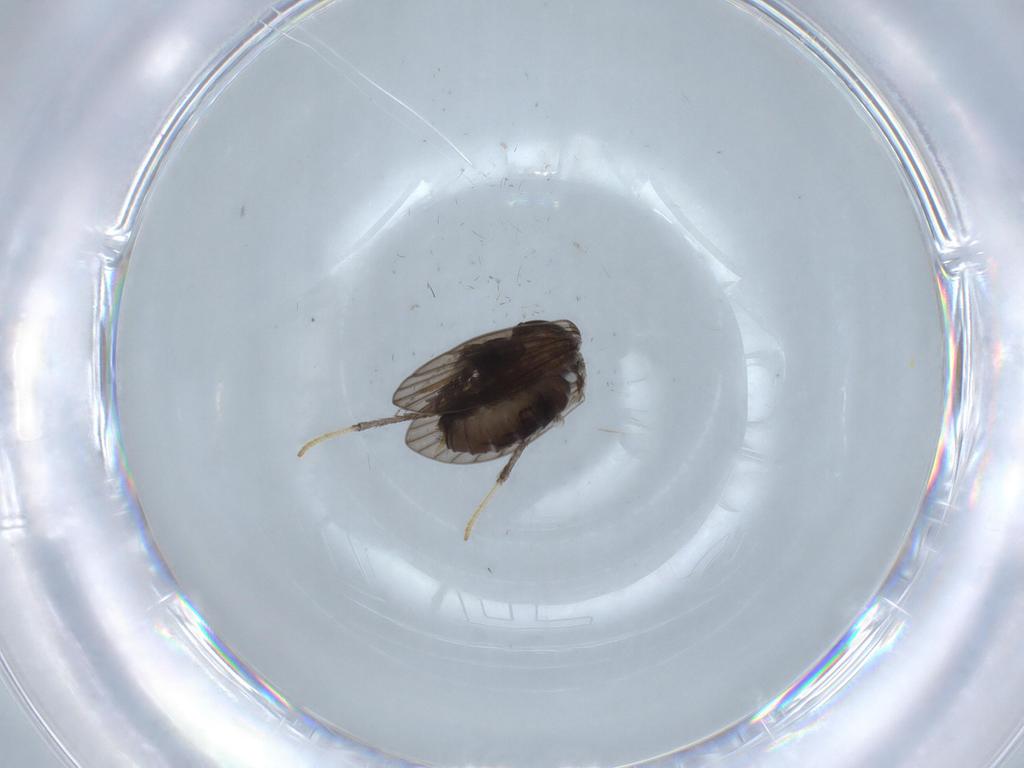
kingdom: Animalia
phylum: Arthropoda
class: Insecta
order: Diptera
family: Psychodidae
